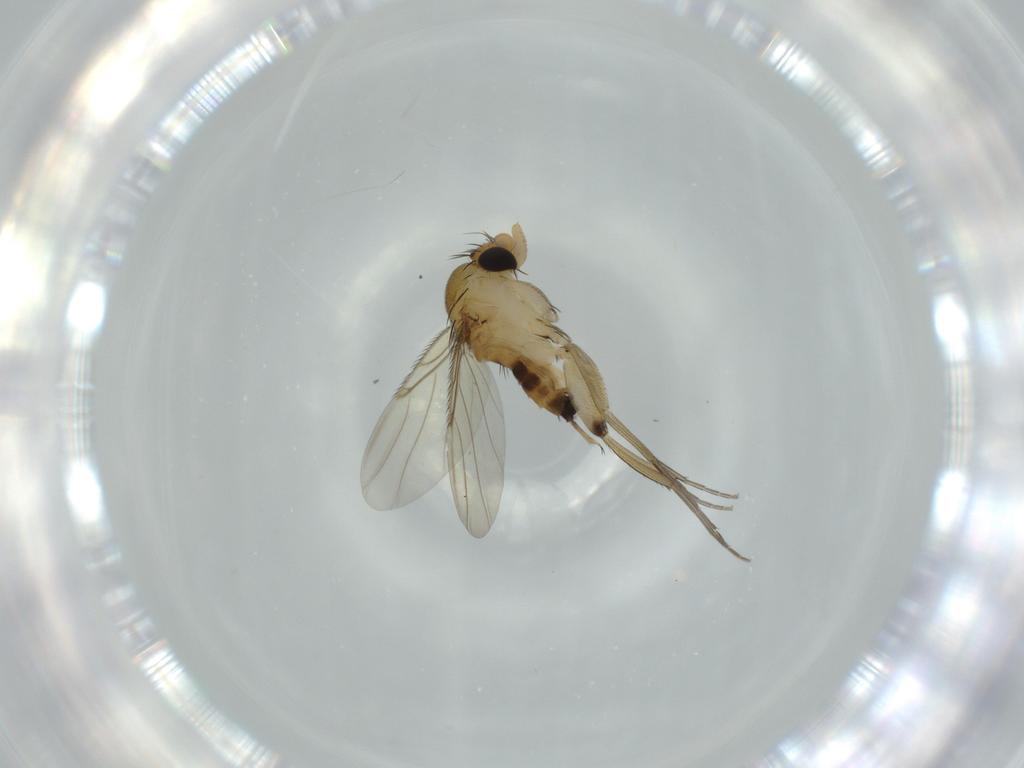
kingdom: Animalia
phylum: Arthropoda
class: Insecta
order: Diptera
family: Phoridae
